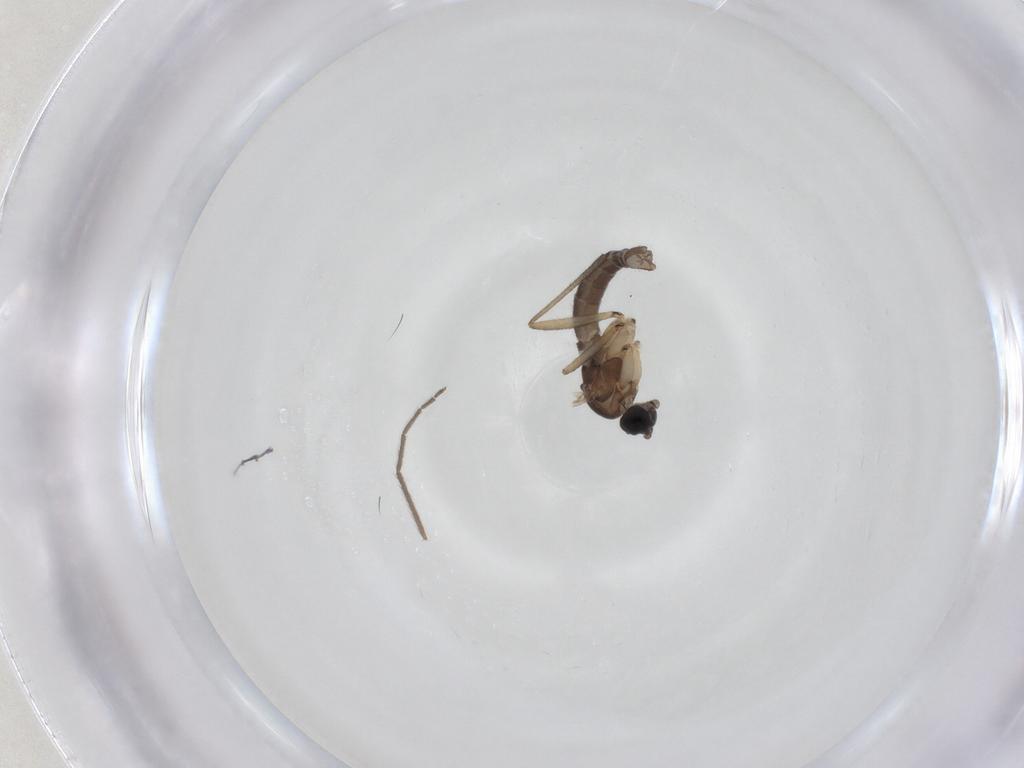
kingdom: Animalia
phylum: Arthropoda
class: Insecta
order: Diptera
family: Sciaridae
